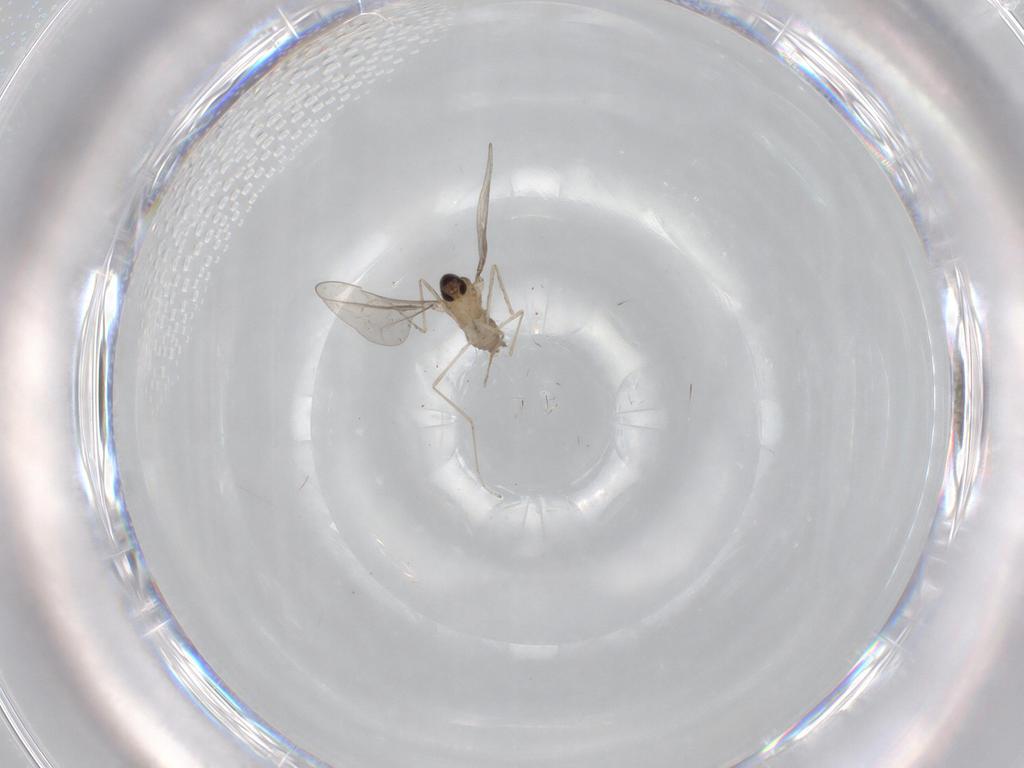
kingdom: Animalia
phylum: Arthropoda
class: Insecta
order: Diptera
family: Cecidomyiidae
